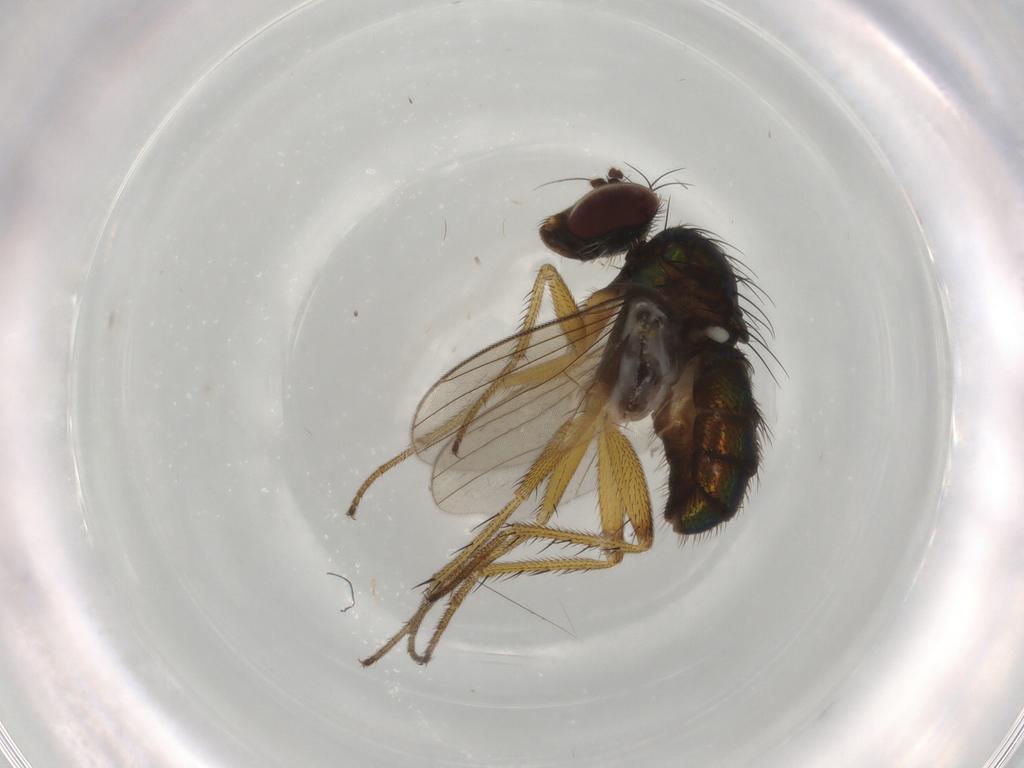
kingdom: Animalia
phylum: Arthropoda
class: Insecta
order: Diptera
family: Dolichopodidae
